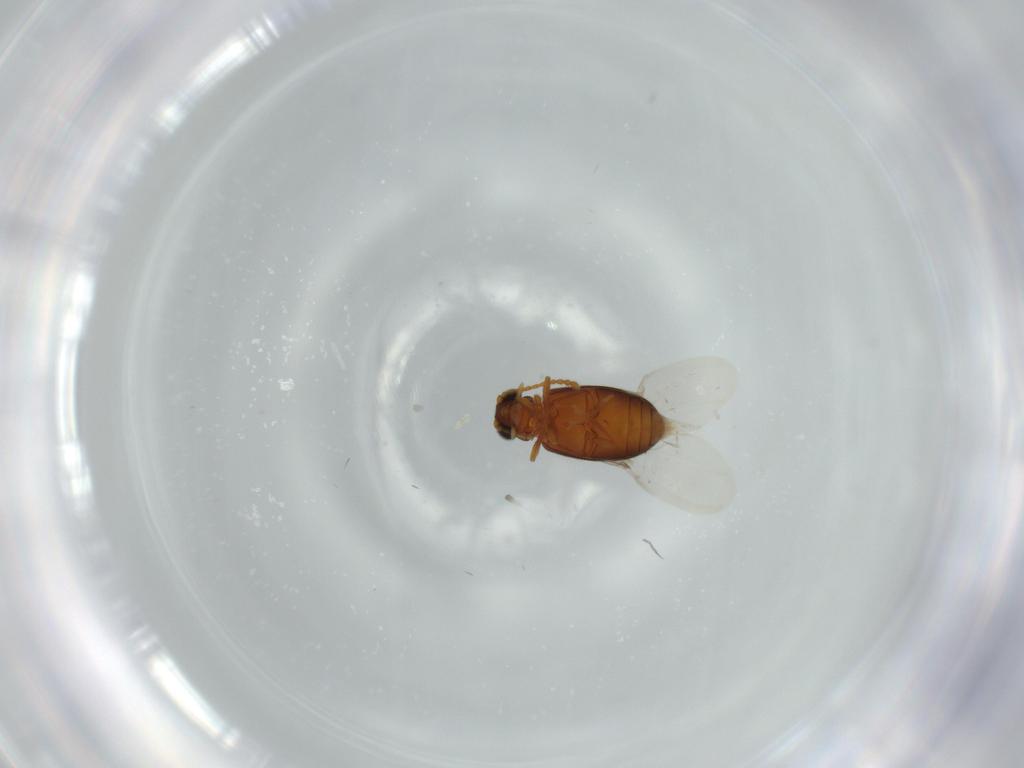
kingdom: Animalia
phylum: Arthropoda
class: Insecta
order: Coleoptera
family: Aderidae
